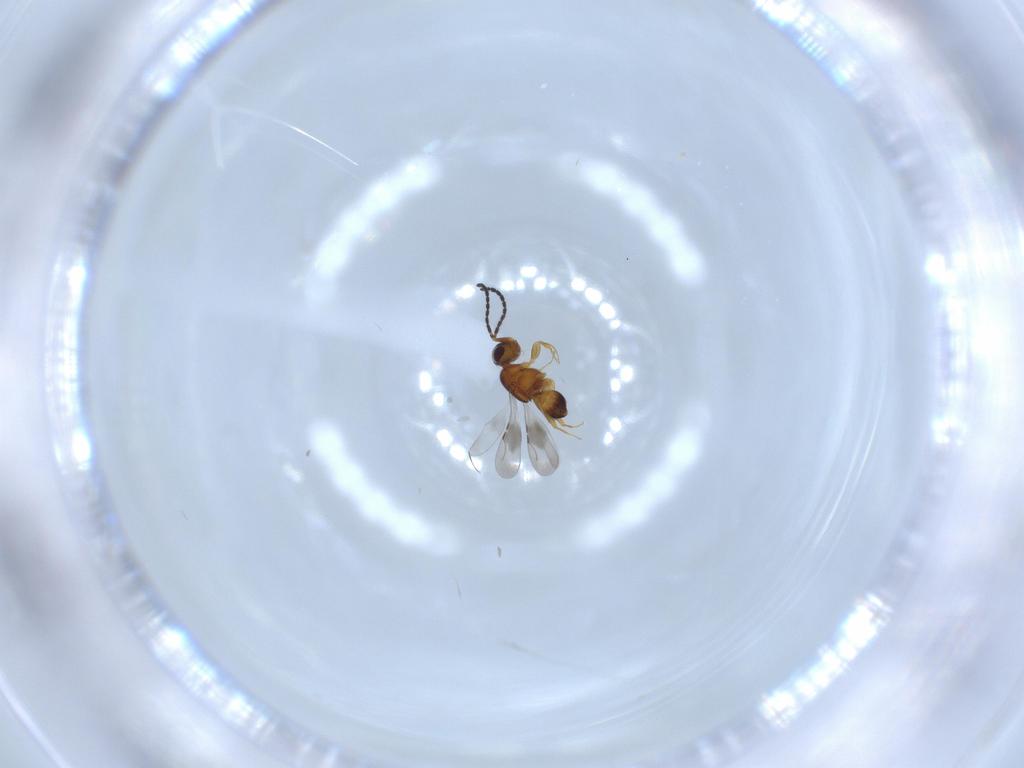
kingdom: Animalia
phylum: Arthropoda
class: Insecta
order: Hymenoptera
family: Ceraphronidae
